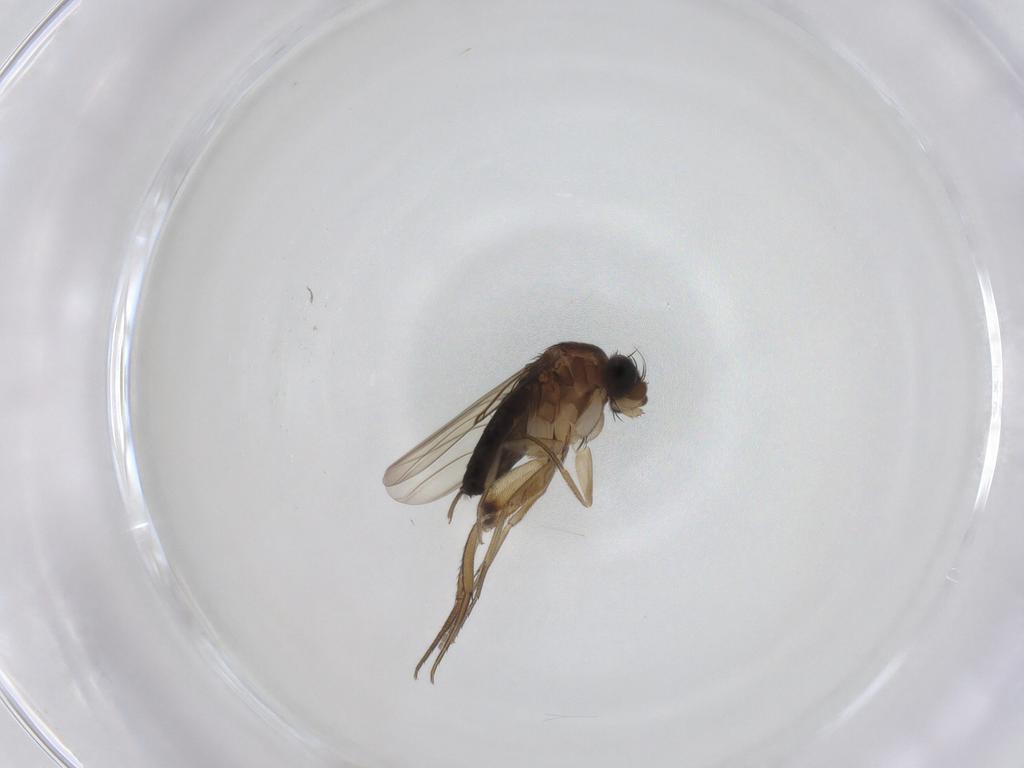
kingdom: Animalia
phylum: Arthropoda
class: Insecta
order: Diptera
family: Phoridae
